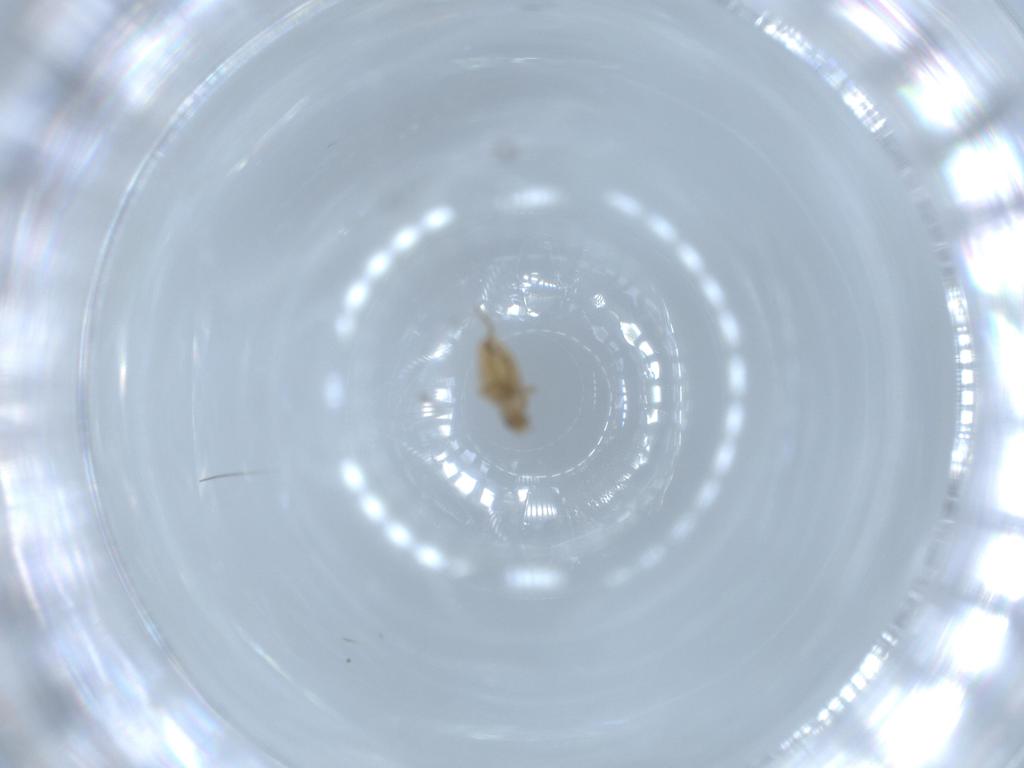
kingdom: Animalia
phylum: Arthropoda
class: Insecta
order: Diptera
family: Phoridae
